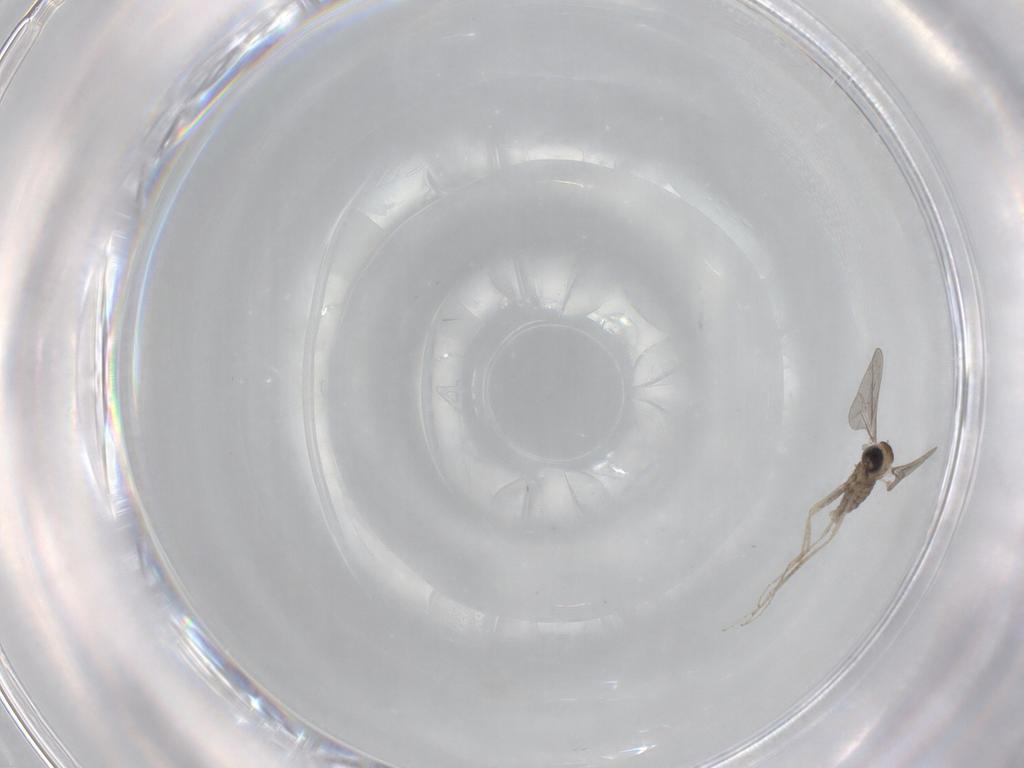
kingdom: Animalia
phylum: Arthropoda
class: Insecta
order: Diptera
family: Cecidomyiidae
